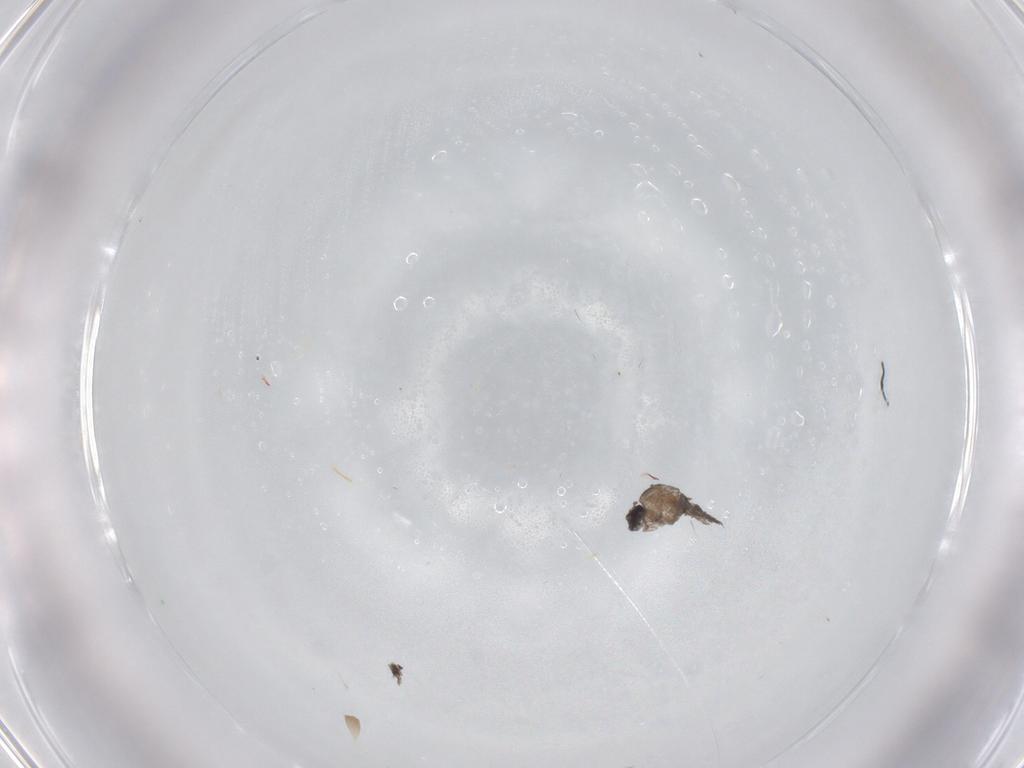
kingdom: Animalia
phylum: Arthropoda
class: Insecta
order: Diptera
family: Cecidomyiidae
